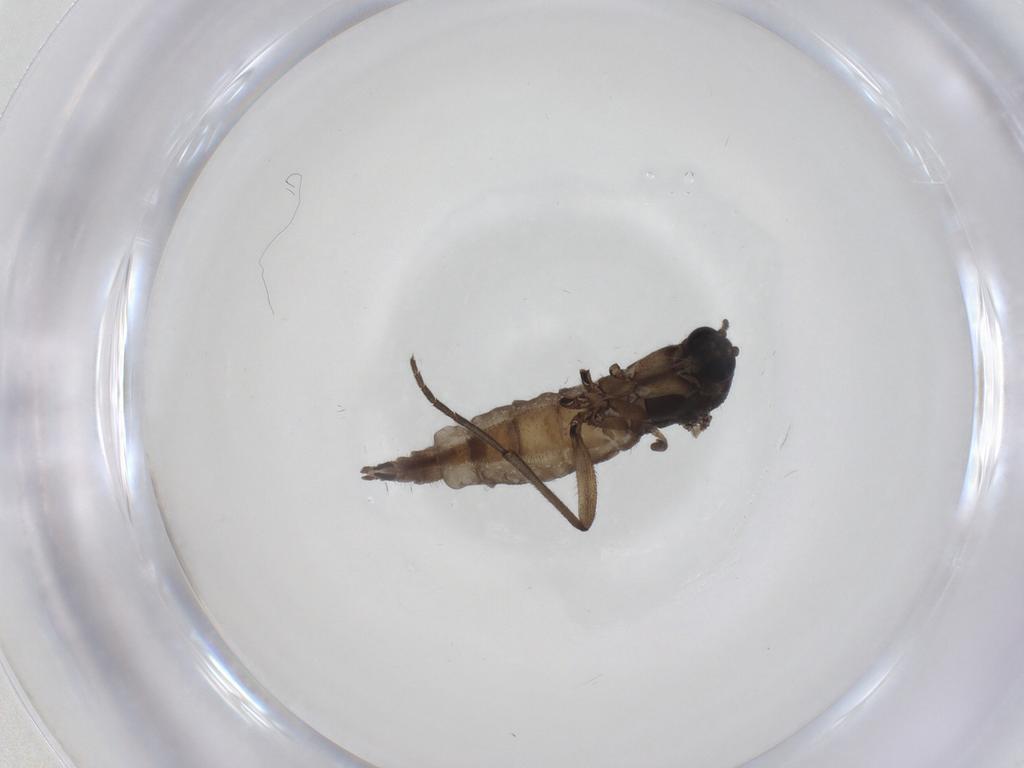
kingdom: Animalia
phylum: Arthropoda
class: Insecta
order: Diptera
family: Sciaridae
